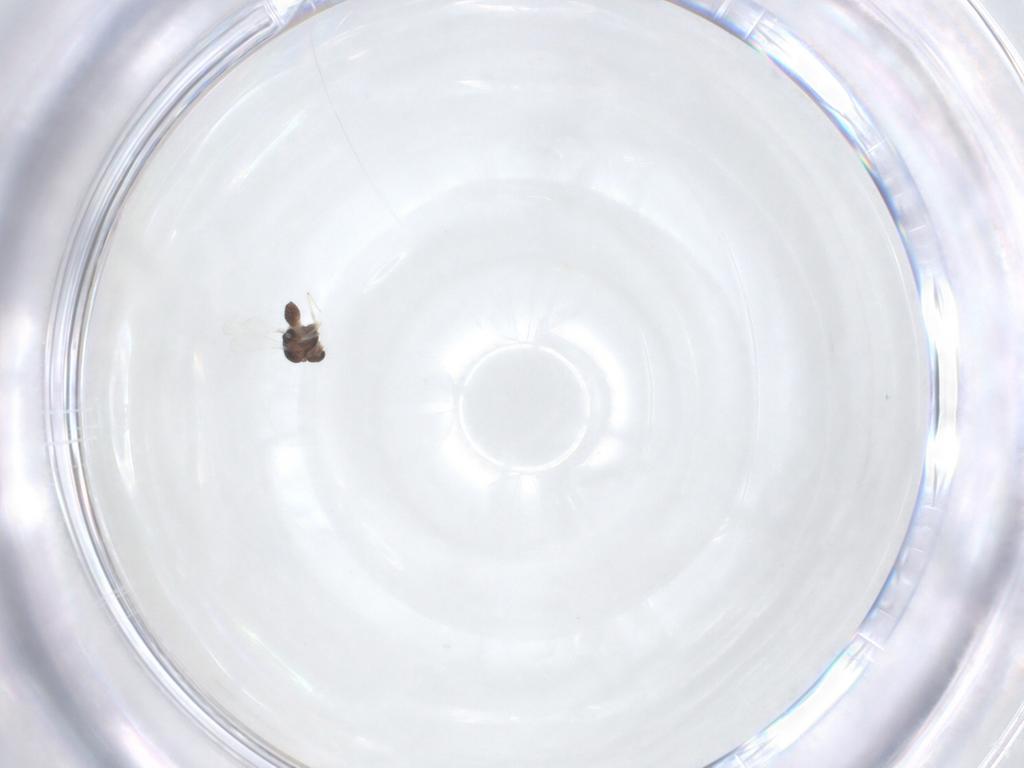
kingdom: Animalia
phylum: Arthropoda
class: Insecta
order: Diptera
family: Chironomidae
